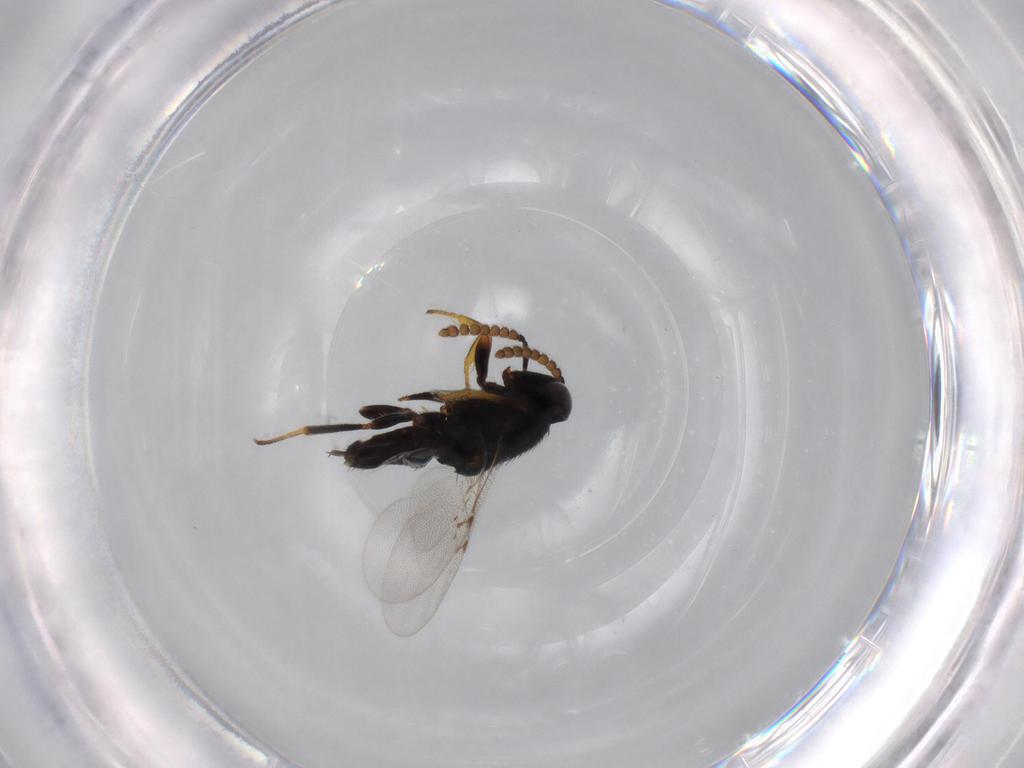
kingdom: Animalia
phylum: Arthropoda
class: Insecta
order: Hymenoptera
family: Encyrtidae
